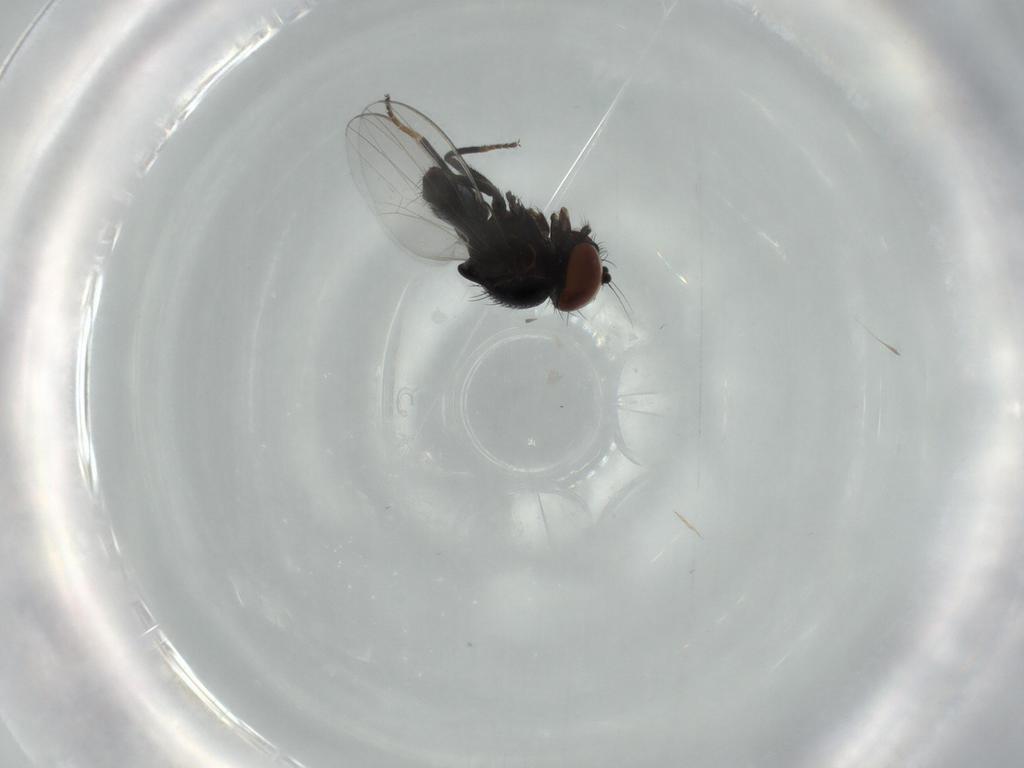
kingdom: Animalia
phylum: Arthropoda
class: Insecta
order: Diptera
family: Milichiidae
